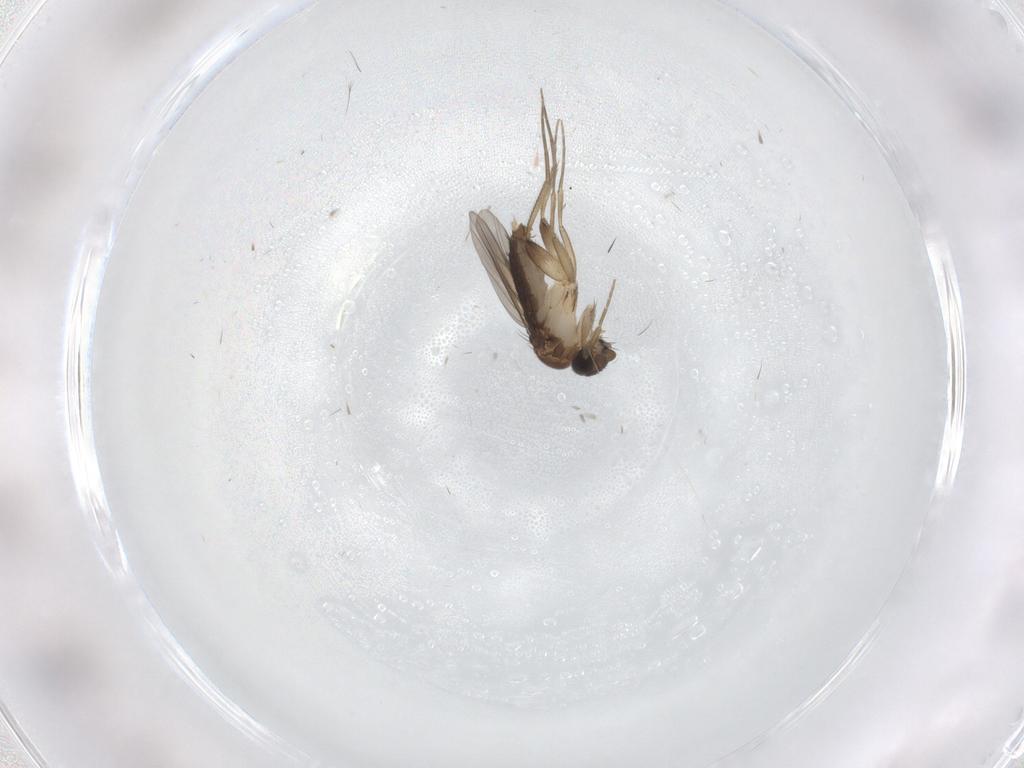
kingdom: Animalia
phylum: Arthropoda
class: Insecta
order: Diptera
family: Phoridae
